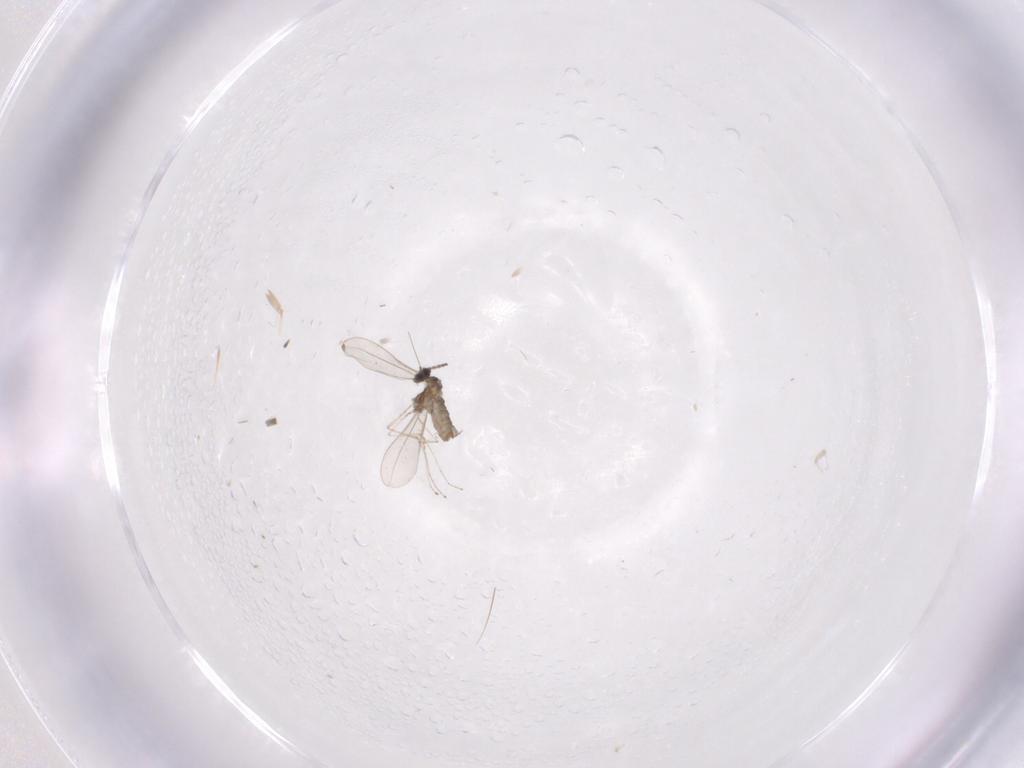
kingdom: Animalia
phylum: Arthropoda
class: Insecta
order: Diptera
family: Cecidomyiidae
